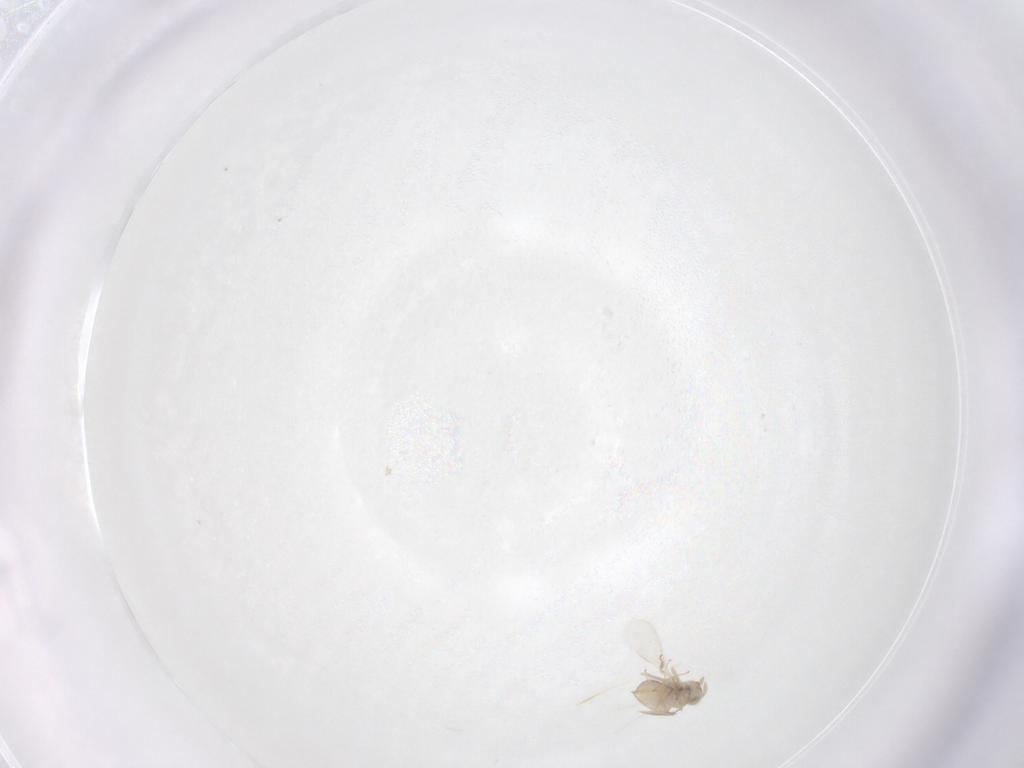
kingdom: Animalia
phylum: Arthropoda
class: Insecta
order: Hymenoptera
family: Aphelinidae
